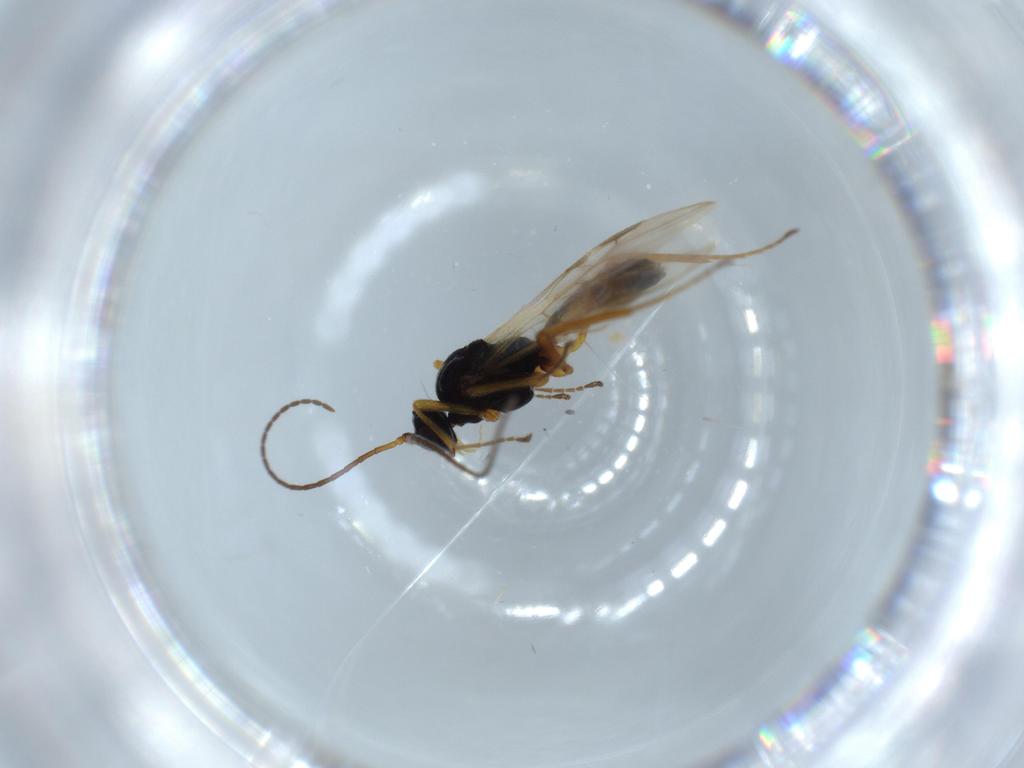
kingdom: Animalia
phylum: Arthropoda
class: Insecta
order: Hymenoptera
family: Braconidae
